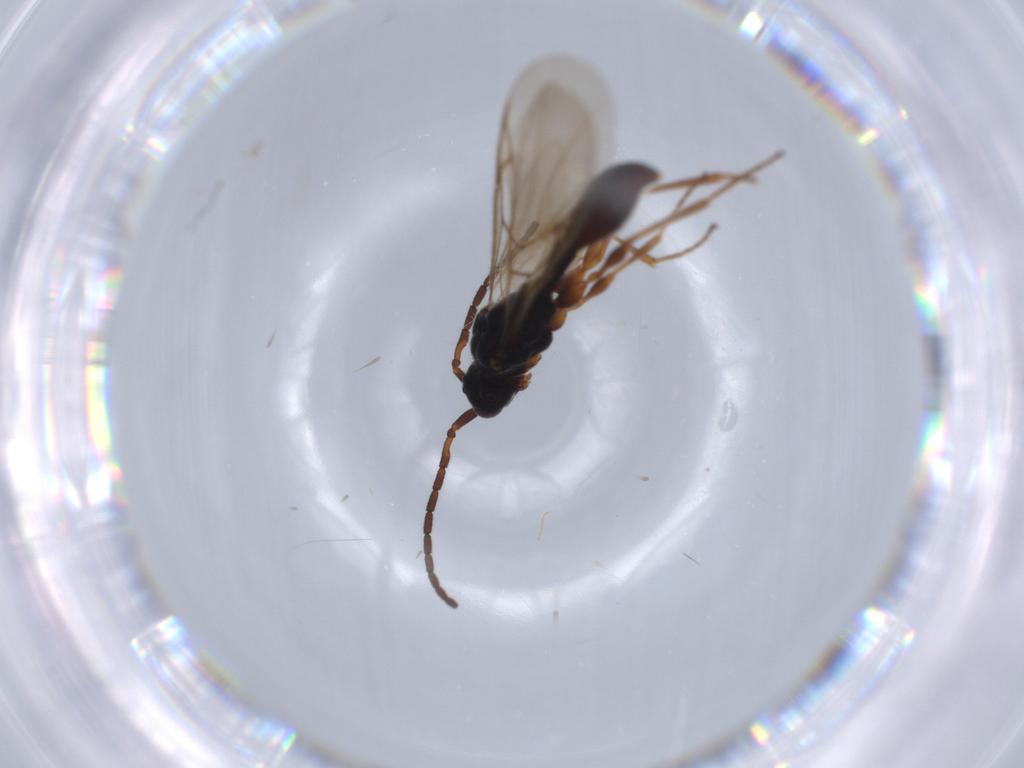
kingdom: Animalia
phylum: Arthropoda
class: Insecta
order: Hymenoptera
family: Braconidae
